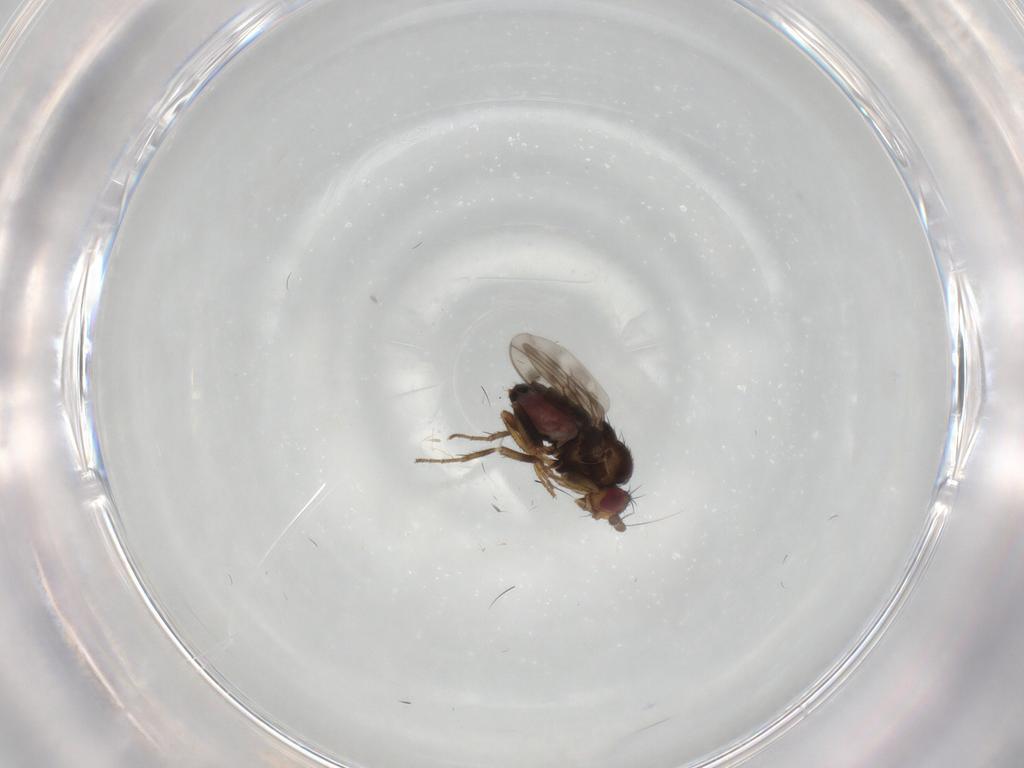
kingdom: Animalia
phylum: Arthropoda
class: Insecta
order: Diptera
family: Sphaeroceridae
